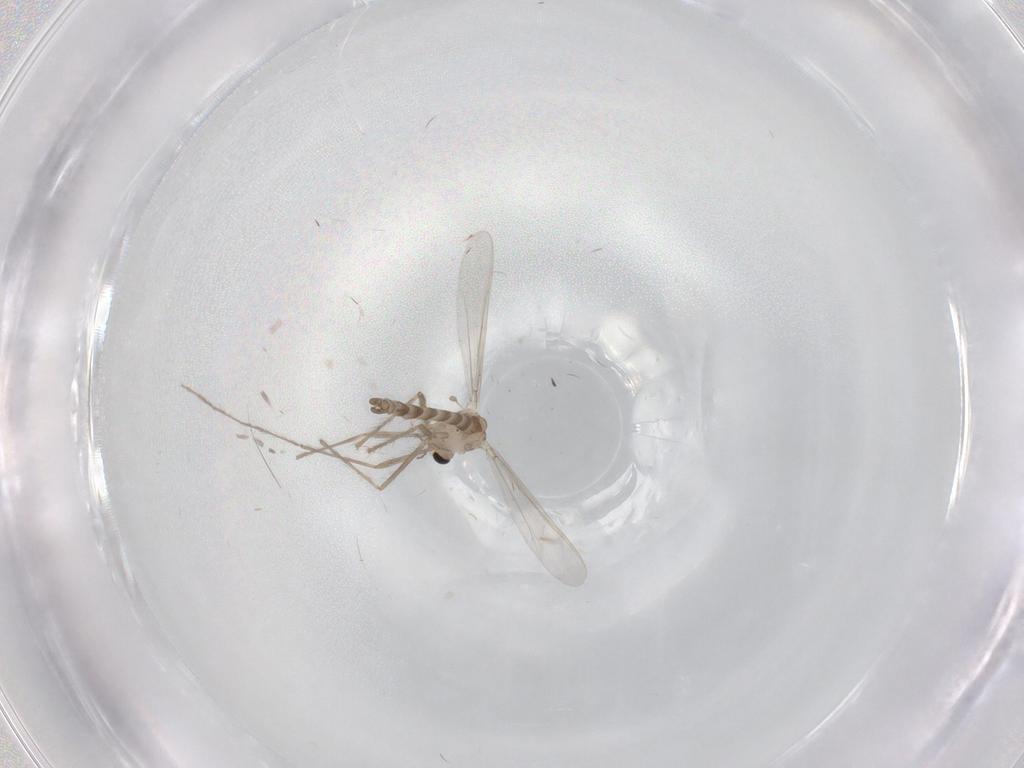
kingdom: Animalia
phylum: Arthropoda
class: Insecta
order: Diptera
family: Chironomidae
